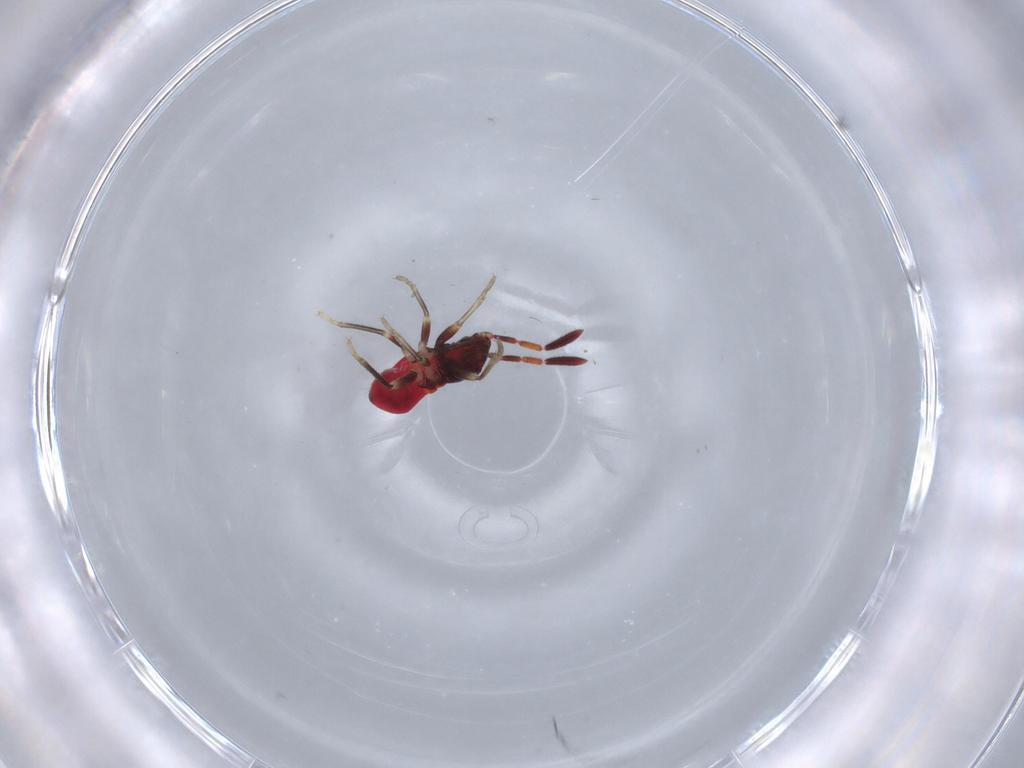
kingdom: Animalia
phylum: Arthropoda
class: Insecta
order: Hemiptera
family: Rhyparochromidae
